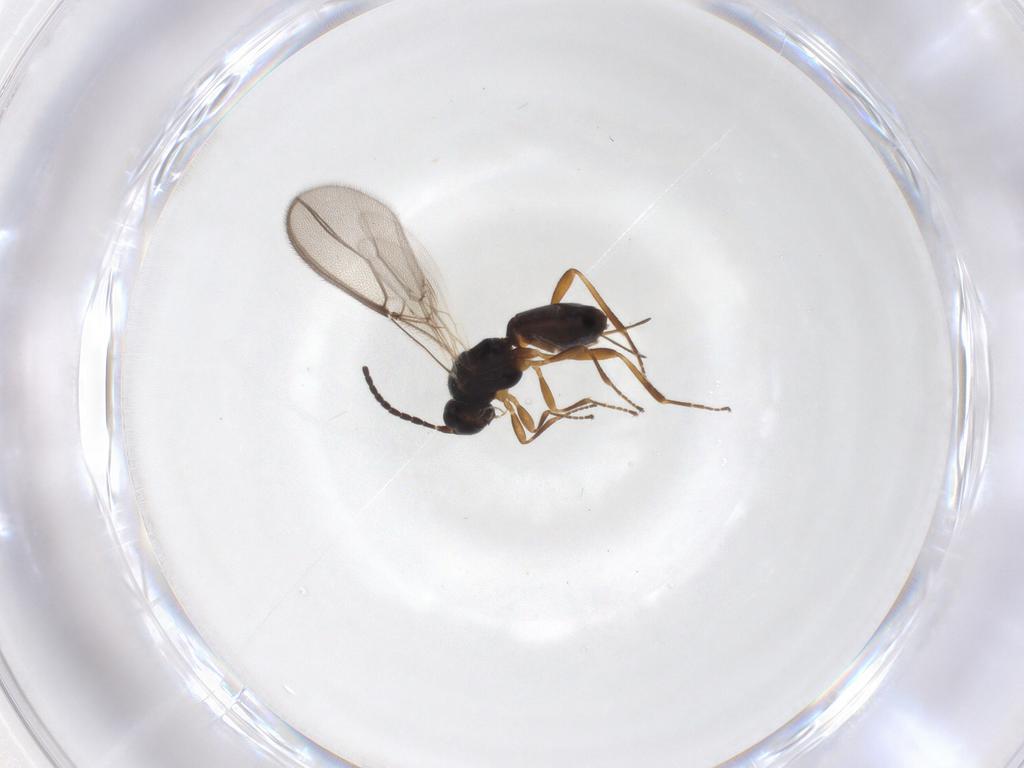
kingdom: Animalia
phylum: Arthropoda
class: Insecta
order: Hymenoptera
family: Braconidae
